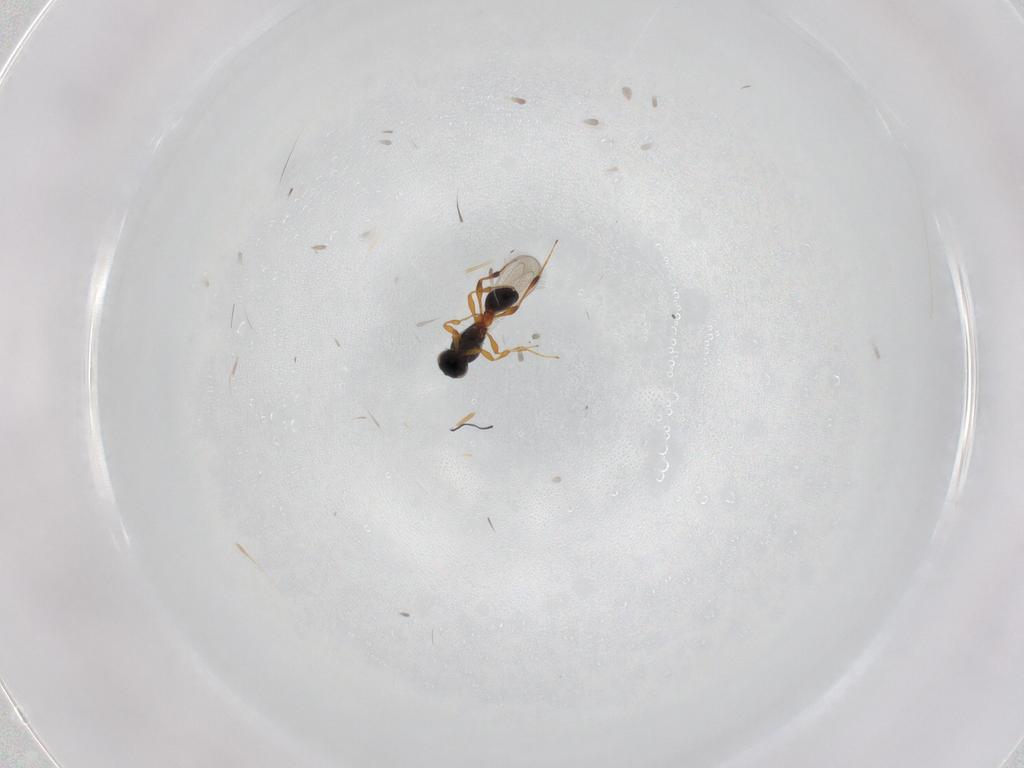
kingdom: Animalia
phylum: Arthropoda
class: Insecta
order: Hymenoptera
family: Platygastridae
